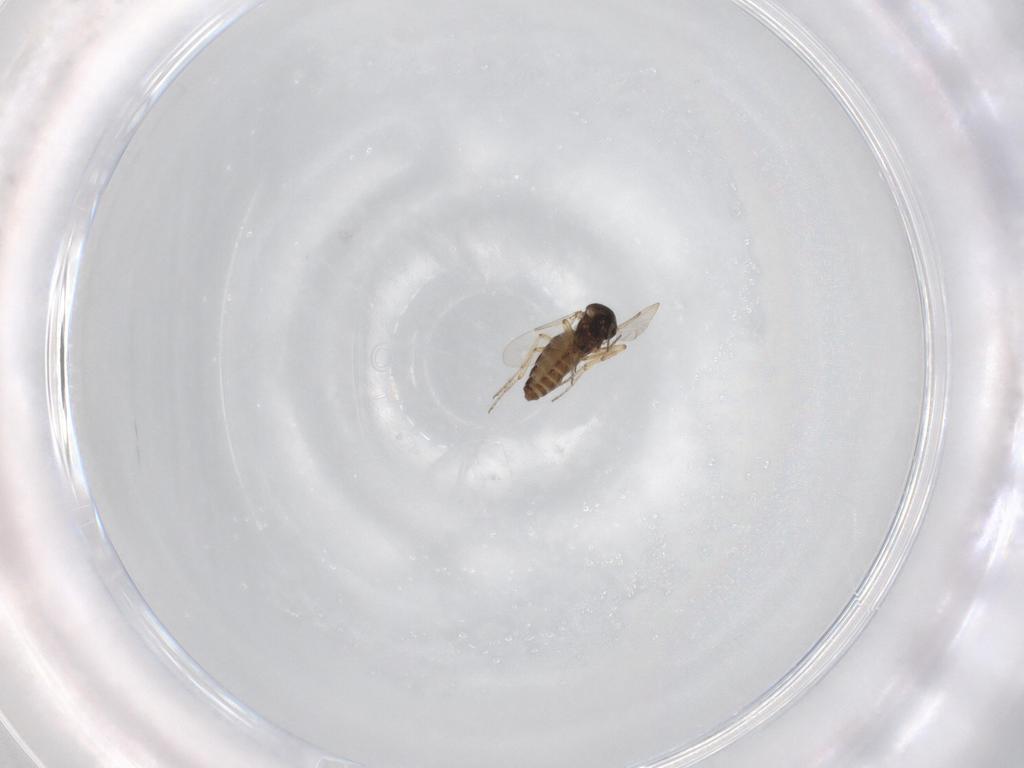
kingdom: Animalia
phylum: Arthropoda
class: Insecta
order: Diptera
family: Ceratopogonidae
